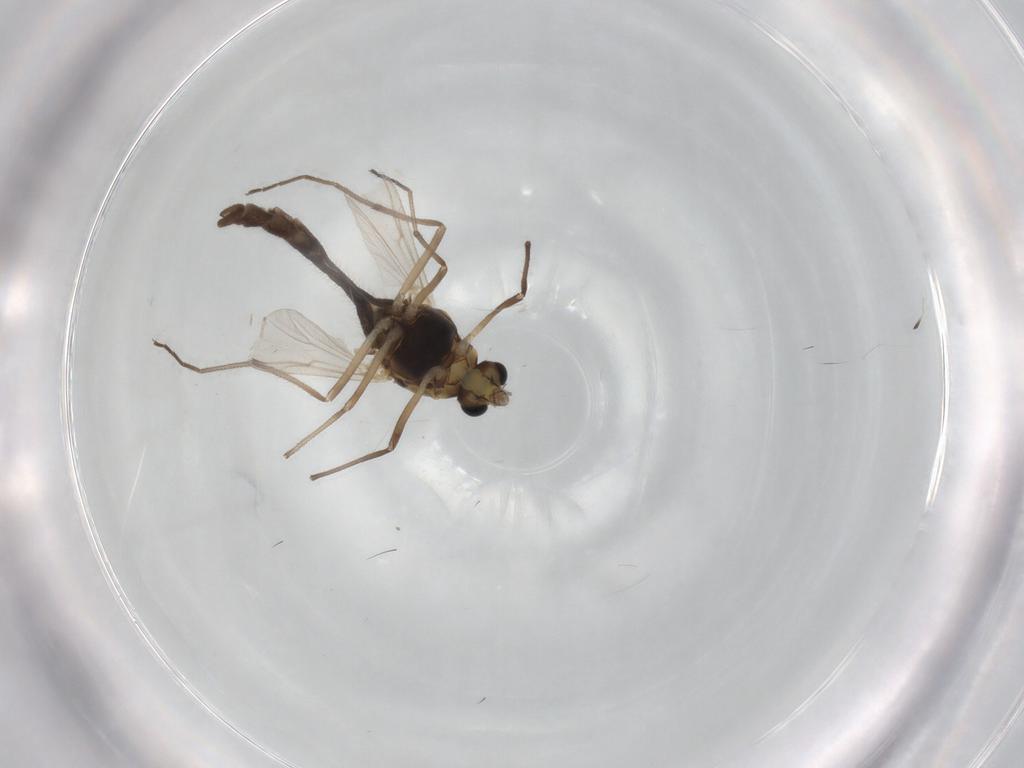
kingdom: Animalia
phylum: Arthropoda
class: Insecta
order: Diptera
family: Chironomidae
